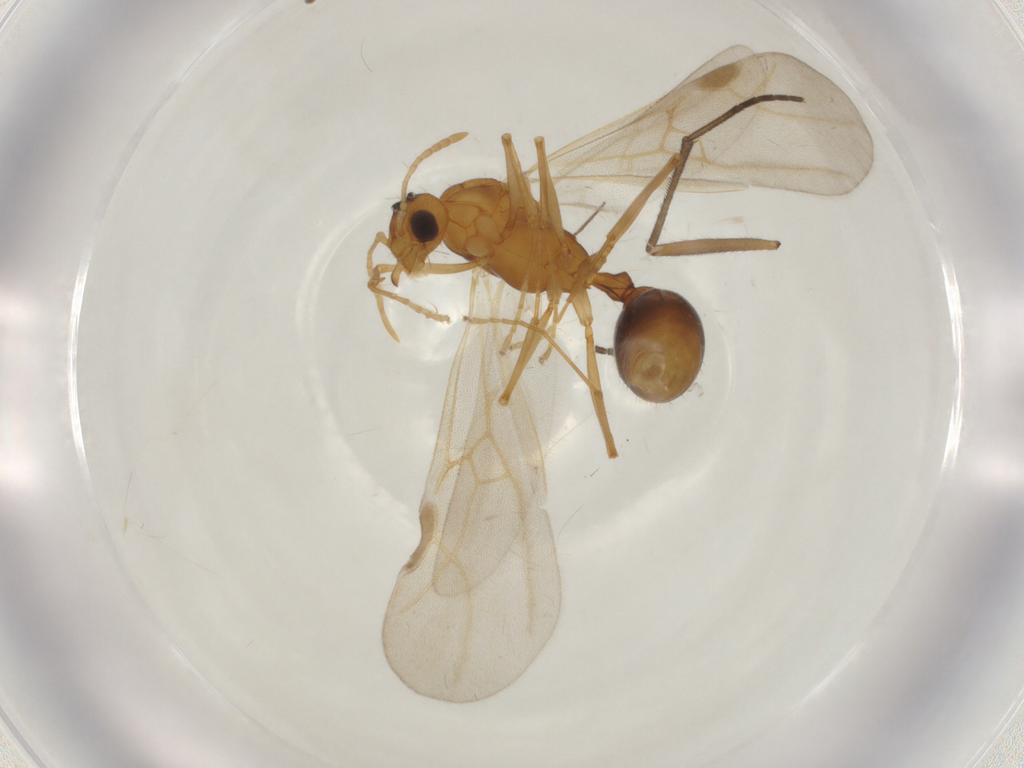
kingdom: Animalia
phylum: Arthropoda
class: Insecta
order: Hymenoptera
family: Formicidae
